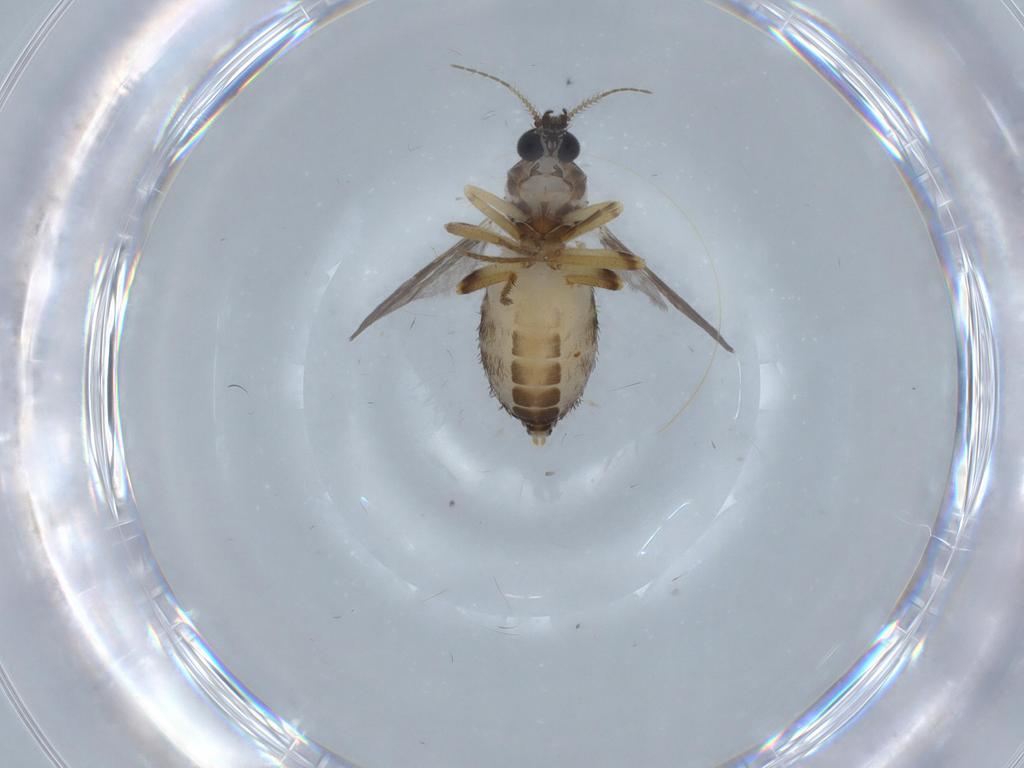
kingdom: Animalia
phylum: Arthropoda
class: Insecta
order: Diptera
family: Ceratopogonidae
